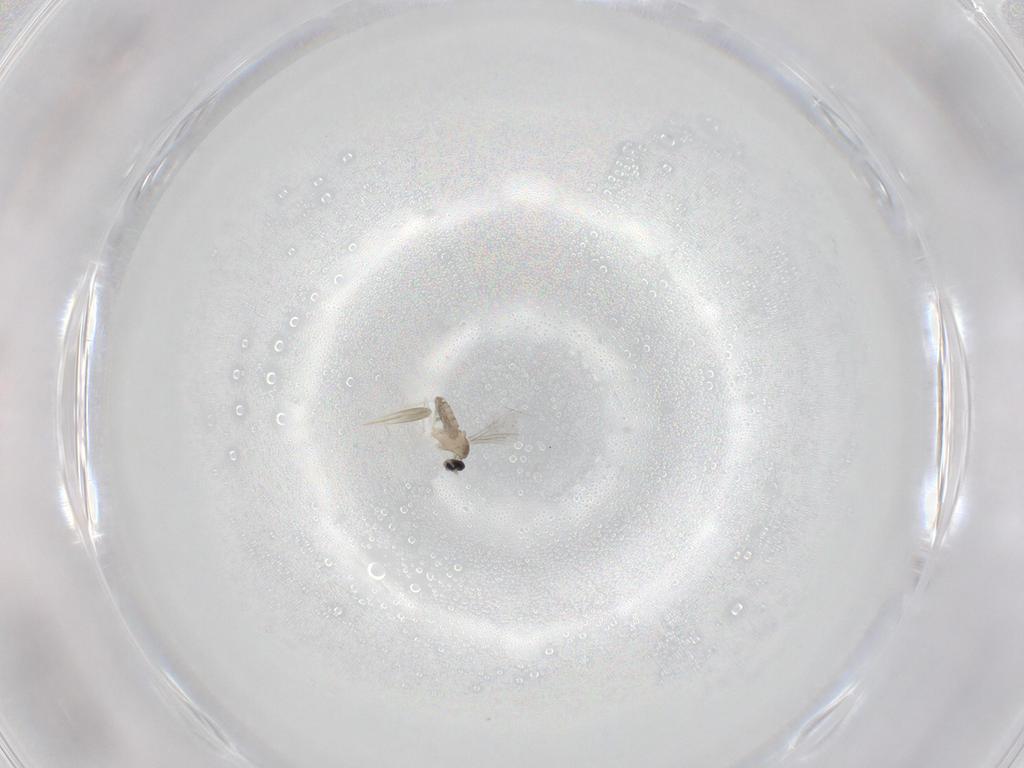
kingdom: Animalia
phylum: Arthropoda
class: Insecta
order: Diptera
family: Cecidomyiidae
